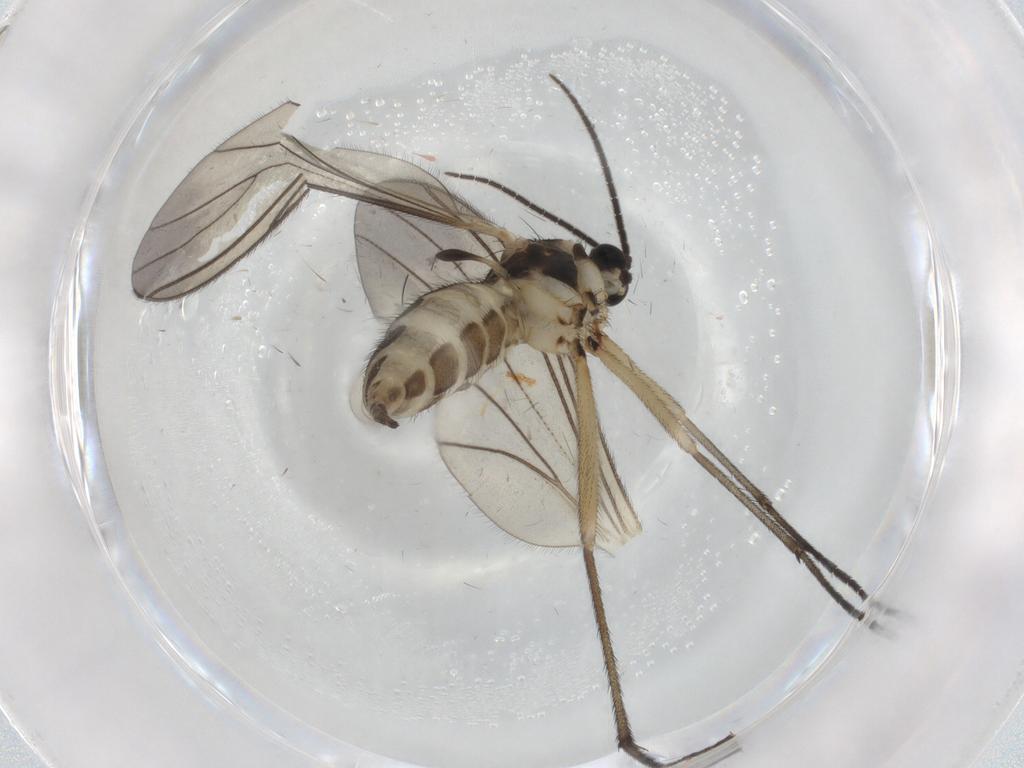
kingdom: Animalia
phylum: Arthropoda
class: Insecta
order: Diptera
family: Sciaridae
